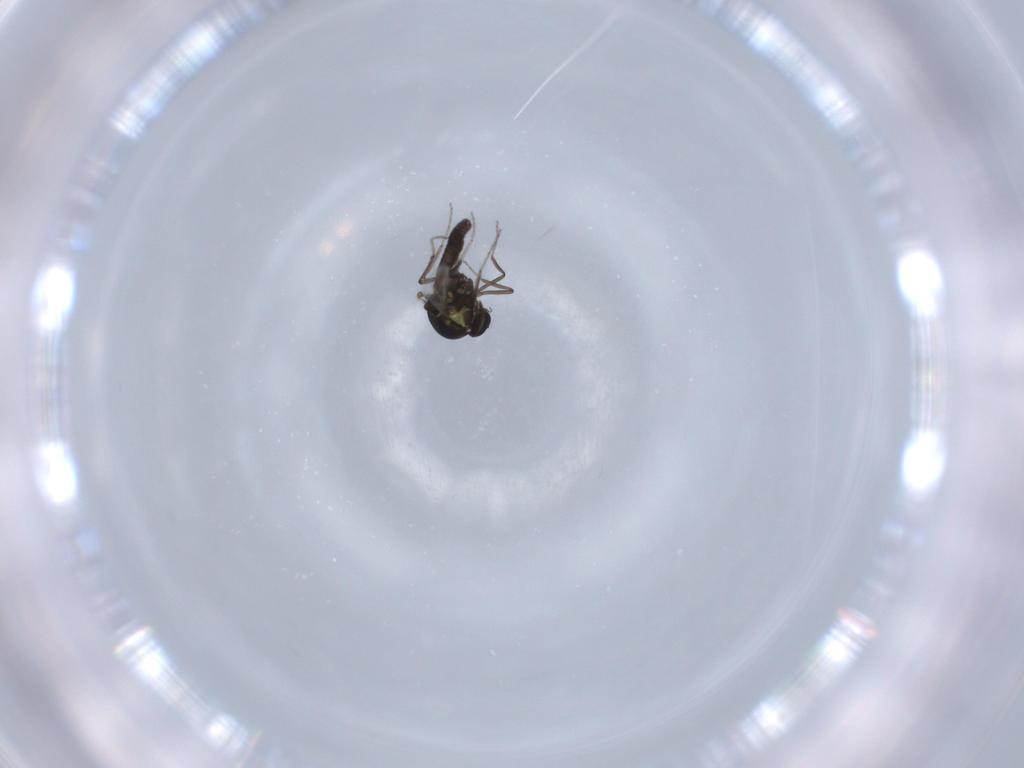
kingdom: Animalia
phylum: Arthropoda
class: Insecta
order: Diptera
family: Ceratopogonidae
